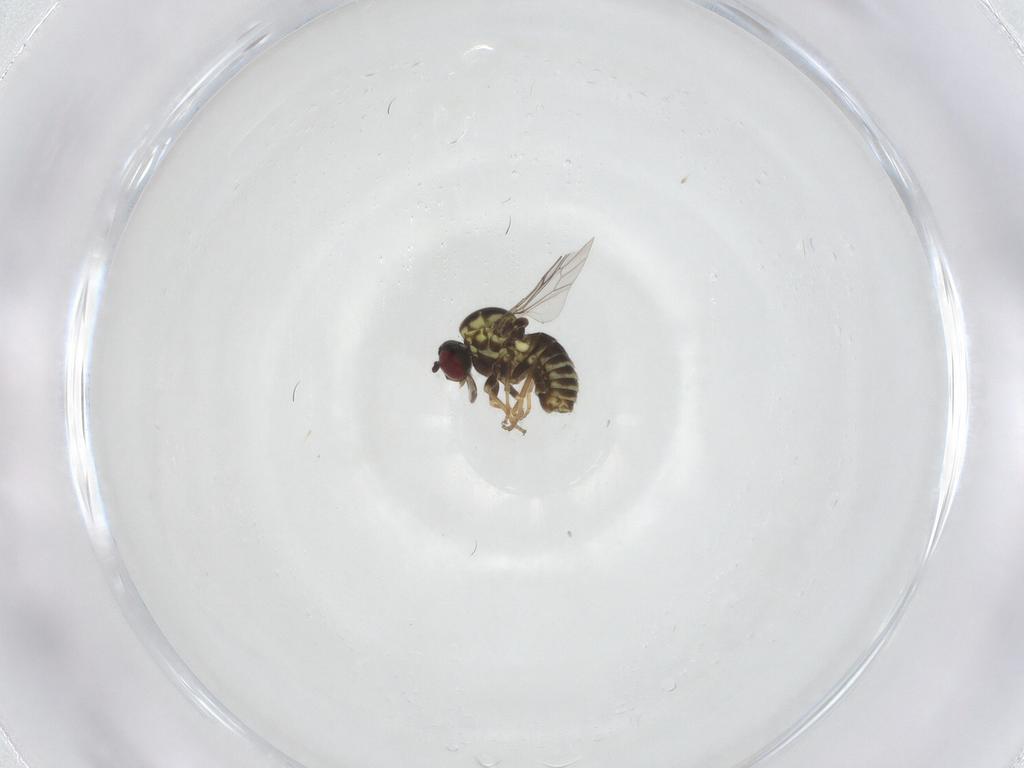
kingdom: Animalia
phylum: Arthropoda
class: Insecta
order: Diptera
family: Bombyliidae
